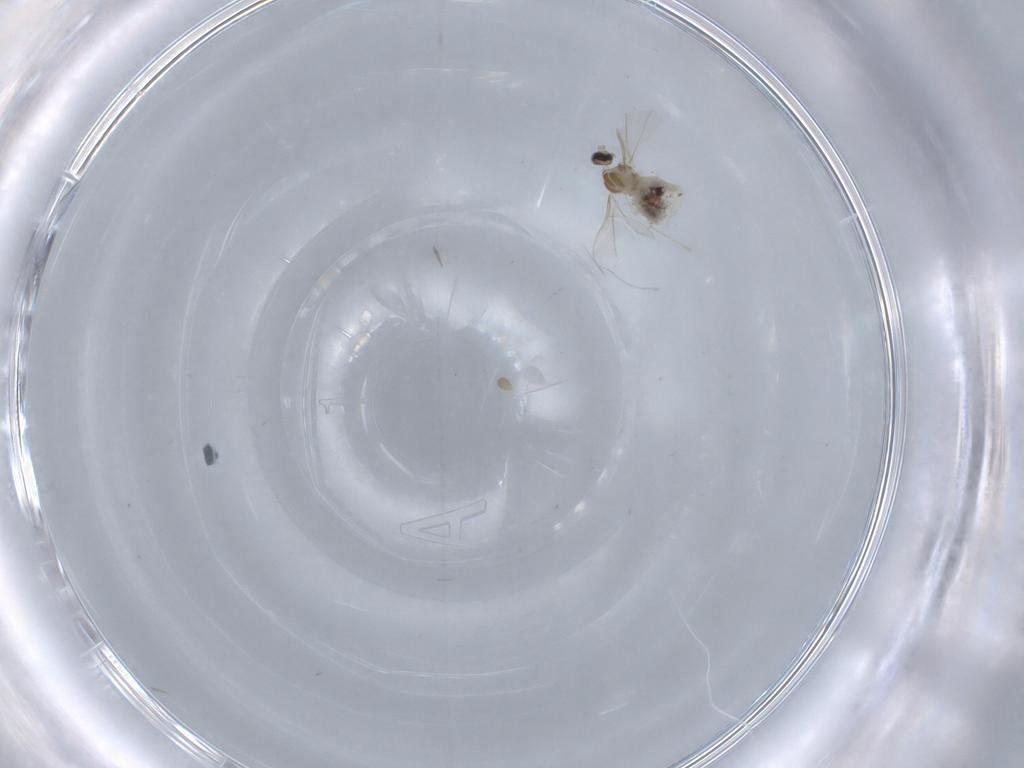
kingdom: Animalia
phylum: Arthropoda
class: Insecta
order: Diptera
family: Cecidomyiidae
